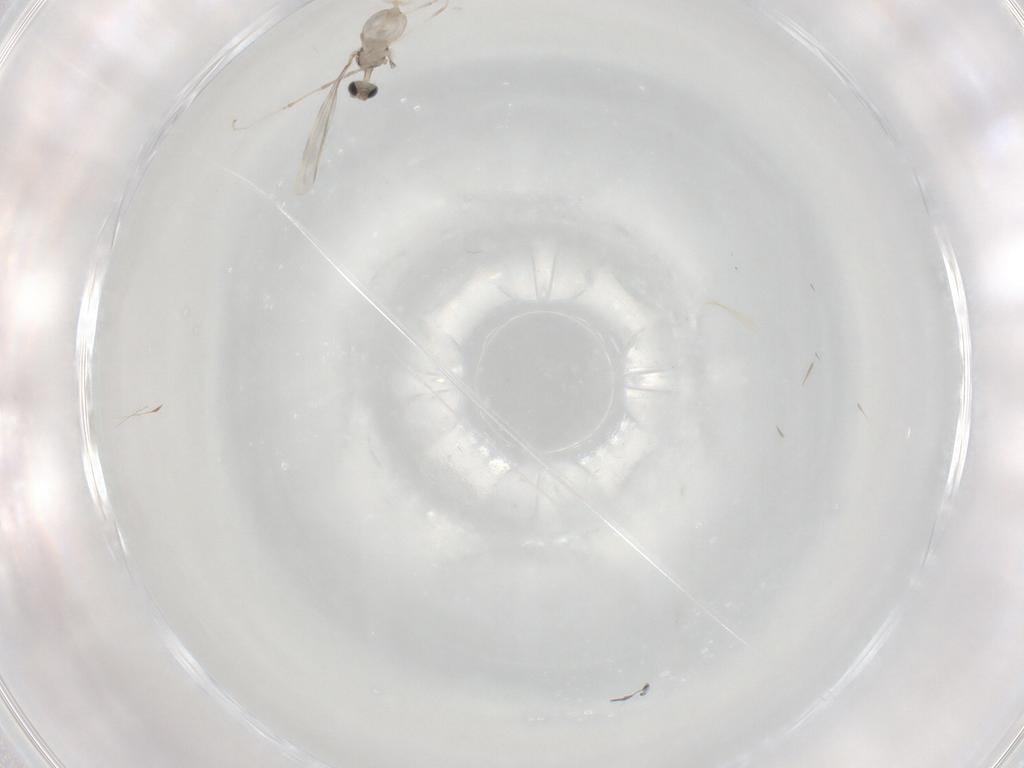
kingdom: Animalia
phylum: Arthropoda
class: Insecta
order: Diptera
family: Cecidomyiidae
